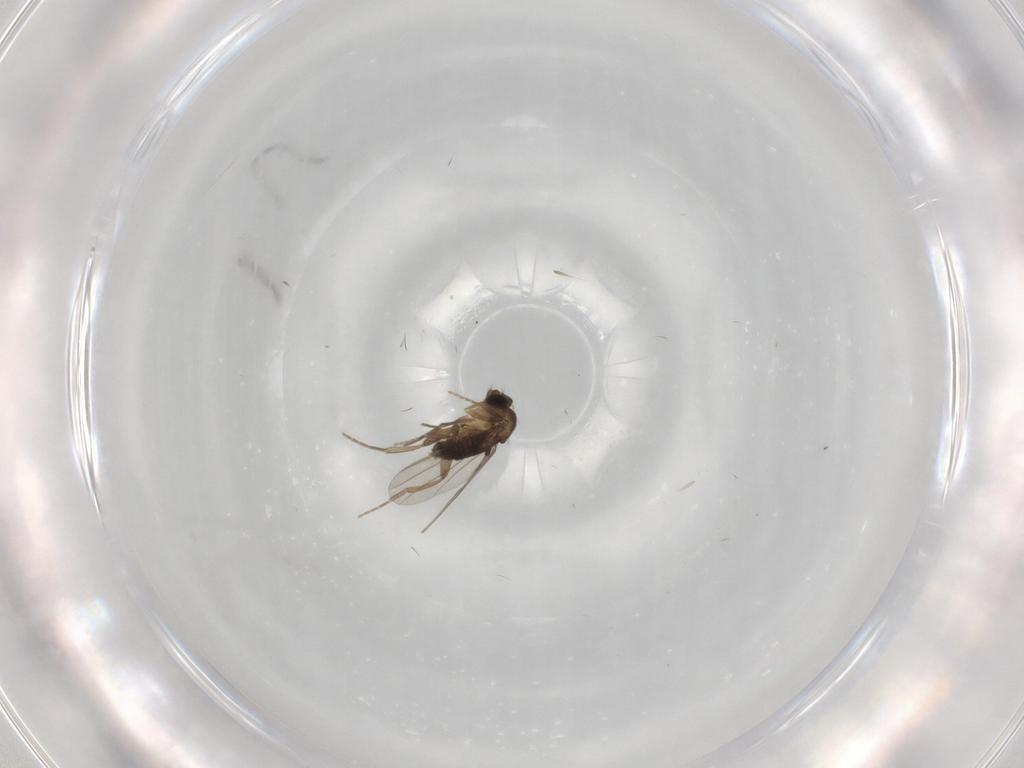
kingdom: Animalia
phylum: Arthropoda
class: Insecta
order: Diptera
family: Phoridae
